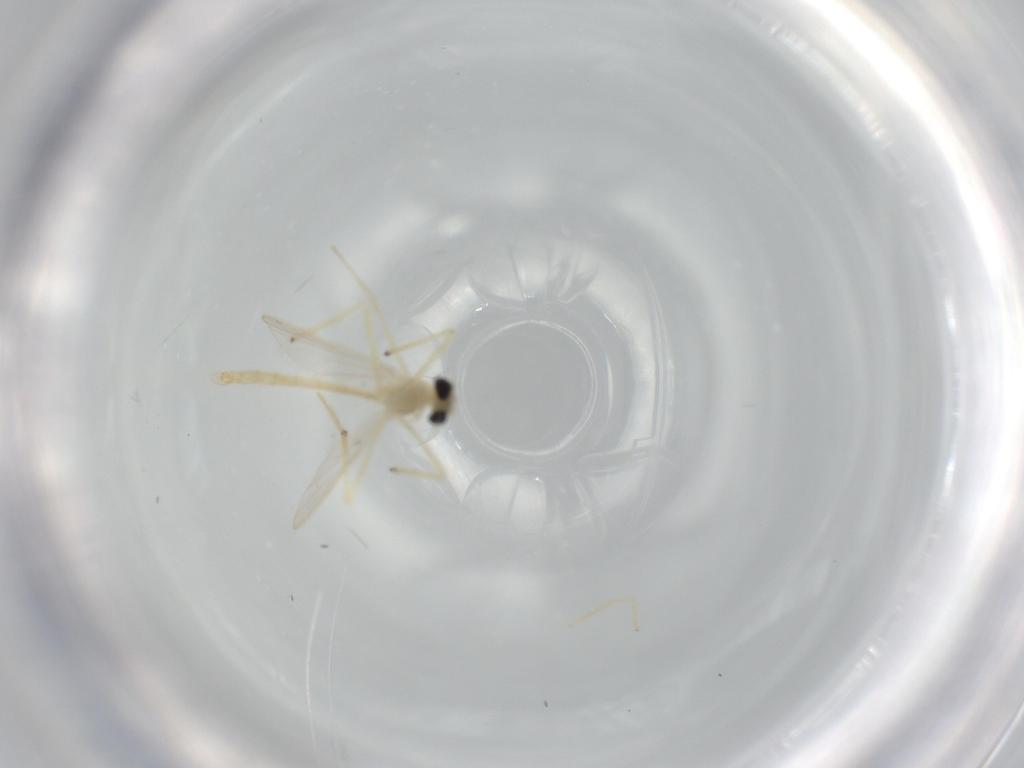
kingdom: Animalia
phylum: Arthropoda
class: Insecta
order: Diptera
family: Chironomidae
